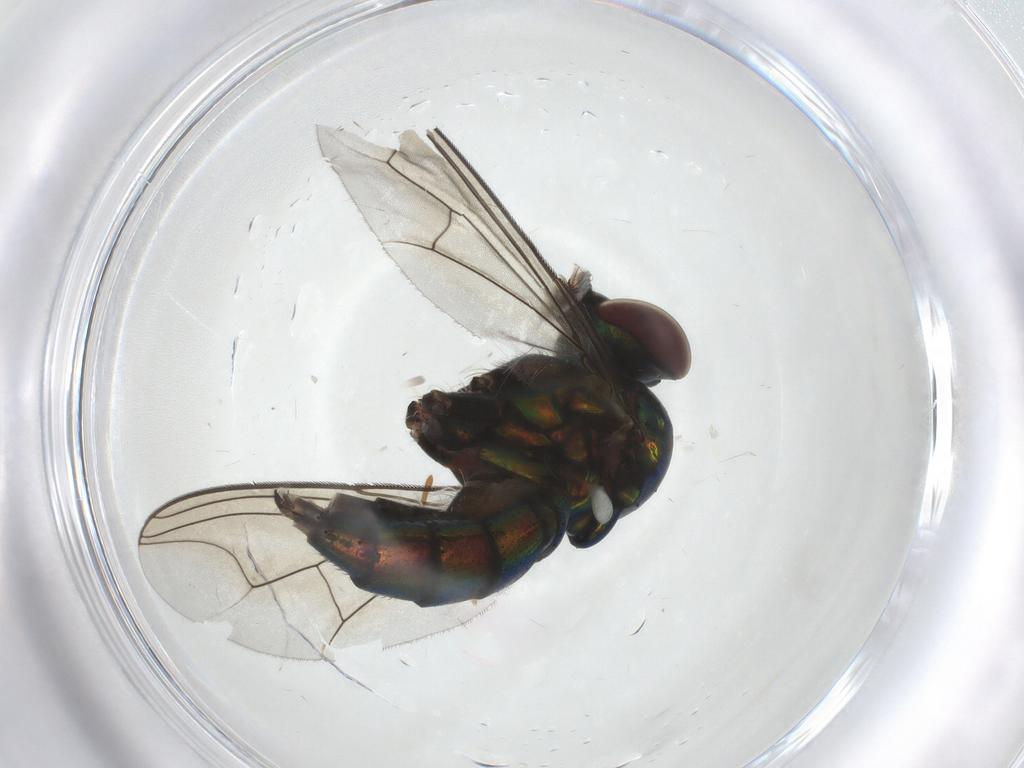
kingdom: Animalia
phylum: Arthropoda
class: Insecta
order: Diptera
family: Dolichopodidae
